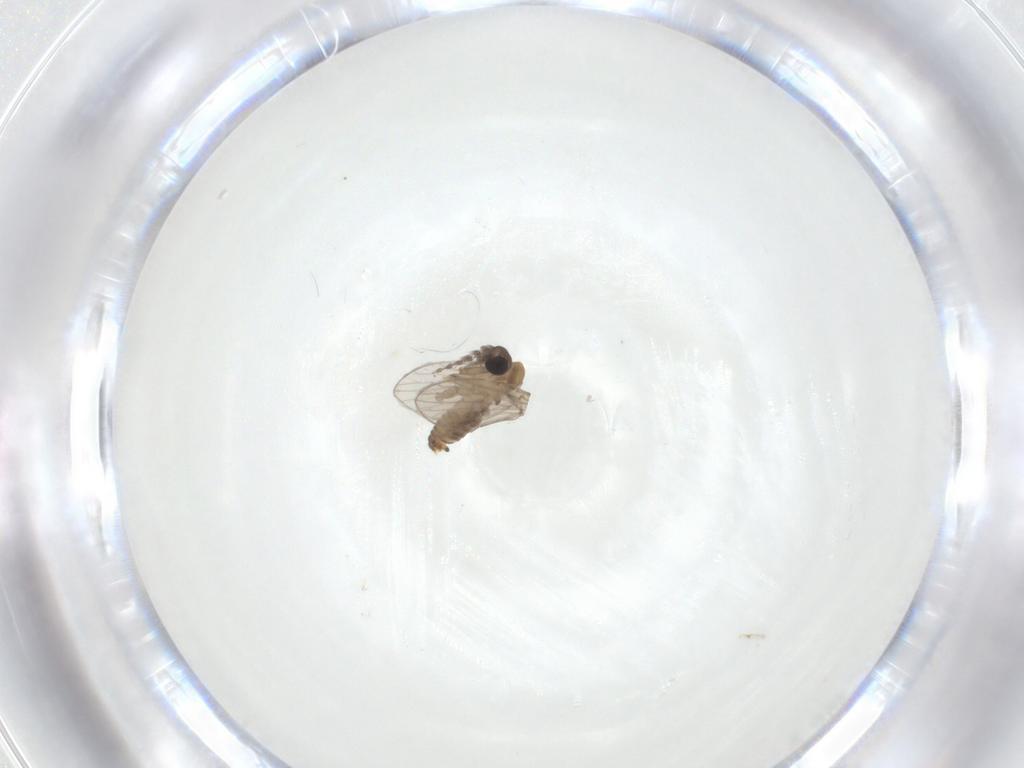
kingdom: Animalia
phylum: Arthropoda
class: Insecta
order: Diptera
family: Psychodidae
